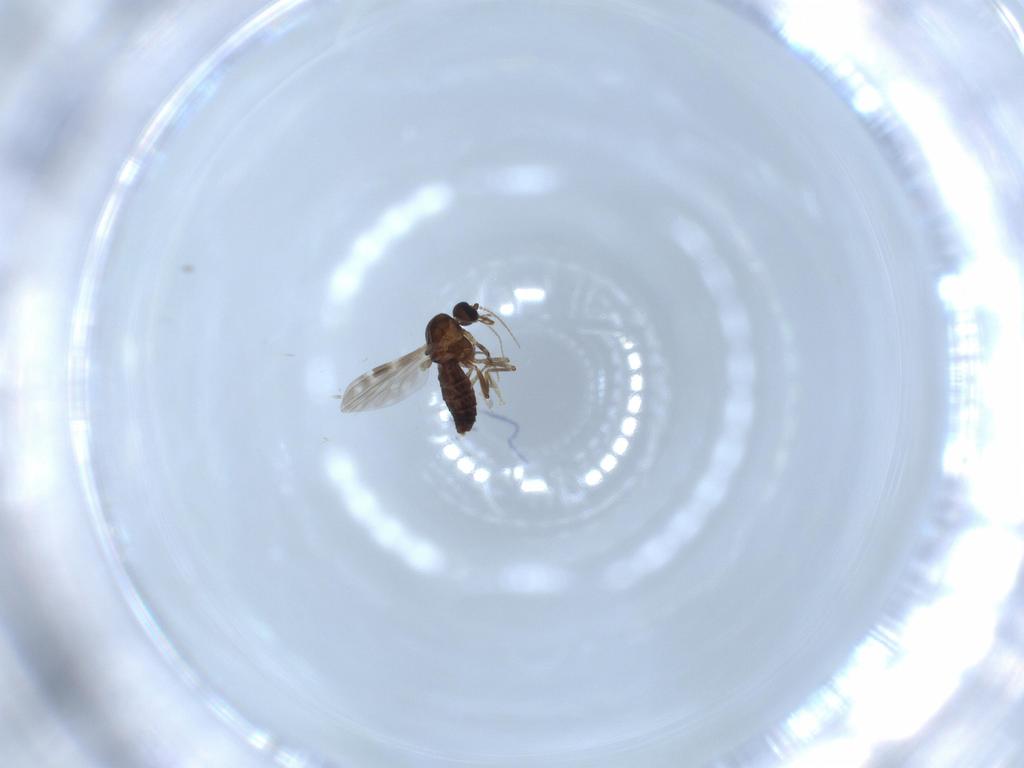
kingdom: Animalia
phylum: Arthropoda
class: Insecta
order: Diptera
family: Ceratopogonidae
